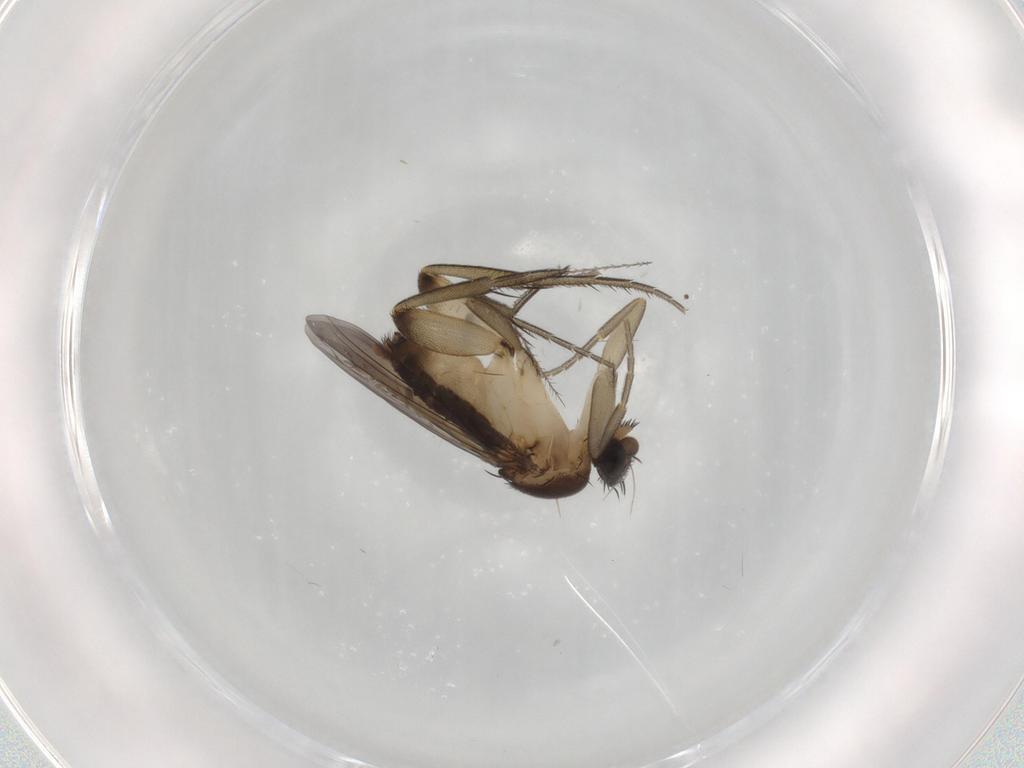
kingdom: Animalia
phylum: Arthropoda
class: Insecta
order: Diptera
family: Phoridae
